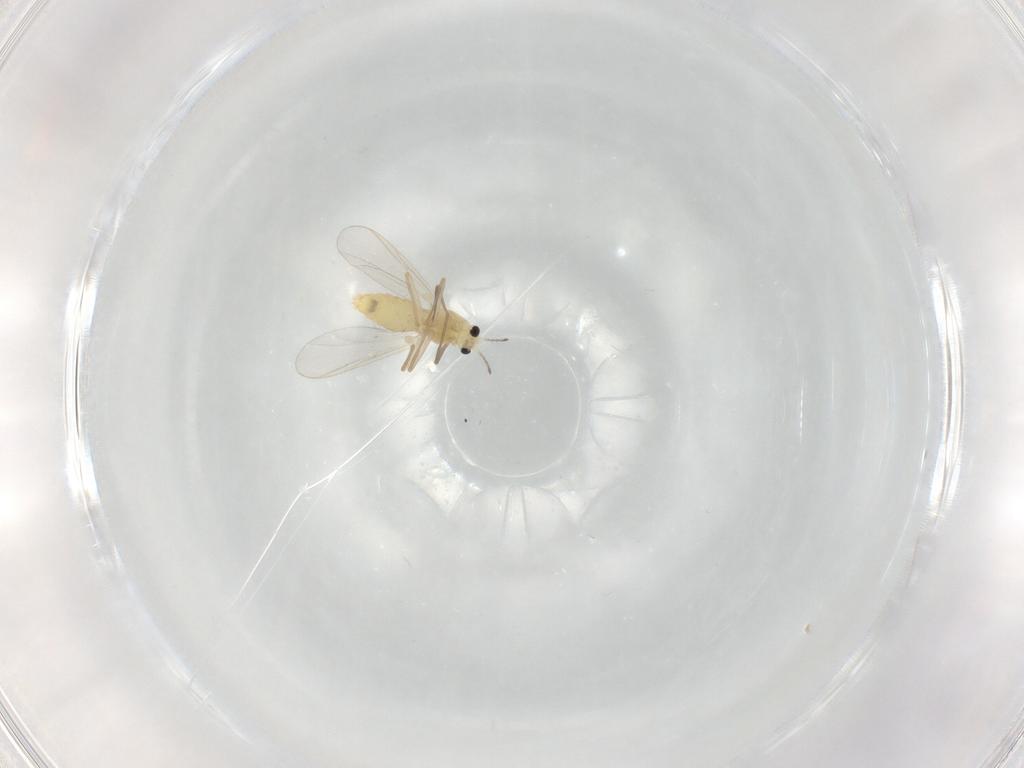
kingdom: Animalia
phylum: Arthropoda
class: Insecta
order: Diptera
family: Chironomidae
